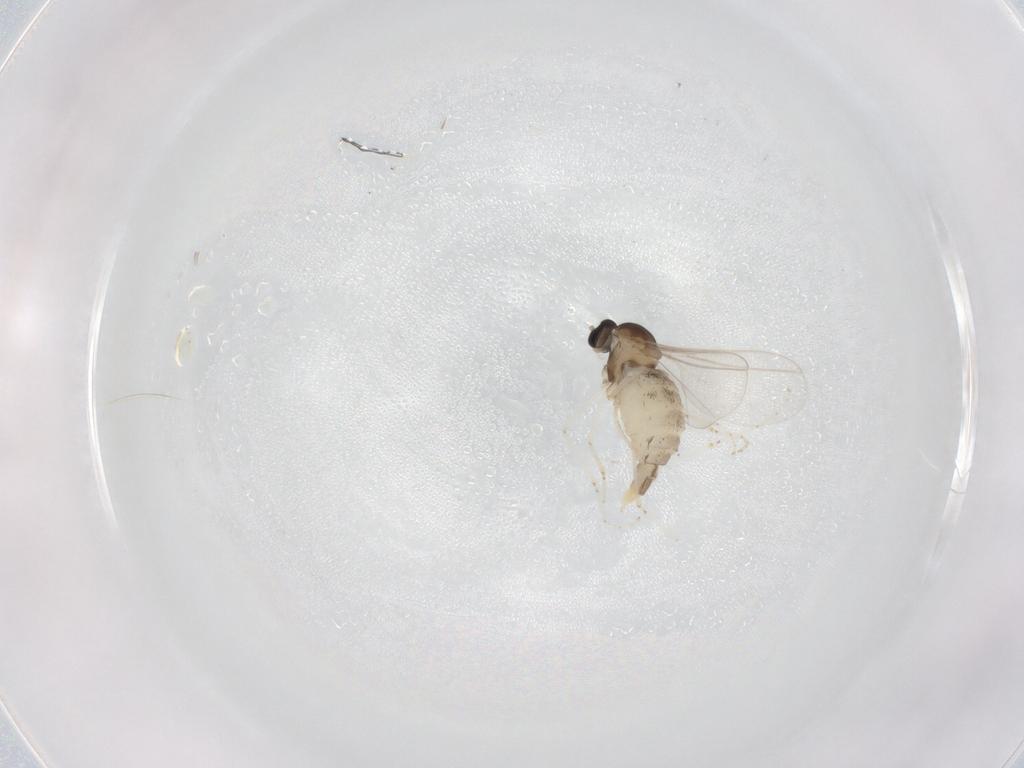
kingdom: Animalia
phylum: Arthropoda
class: Insecta
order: Diptera
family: Cecidomyiidae
